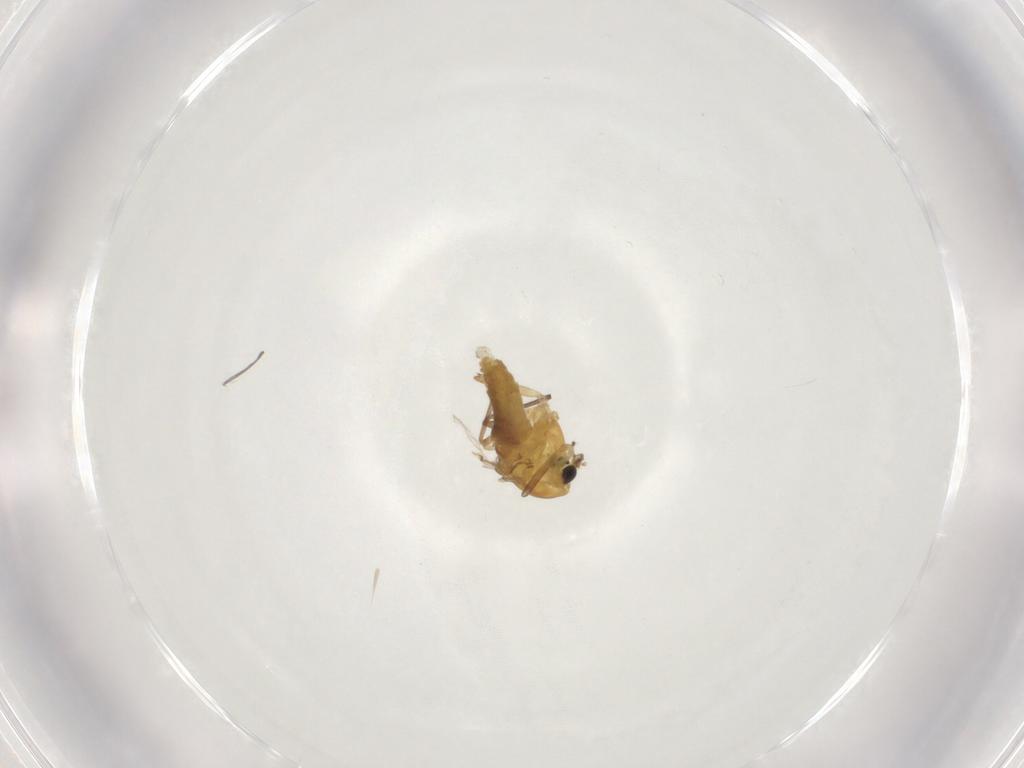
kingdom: Animalia
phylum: Arthropoda
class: Insecta
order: Diptera
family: Chironomidae
